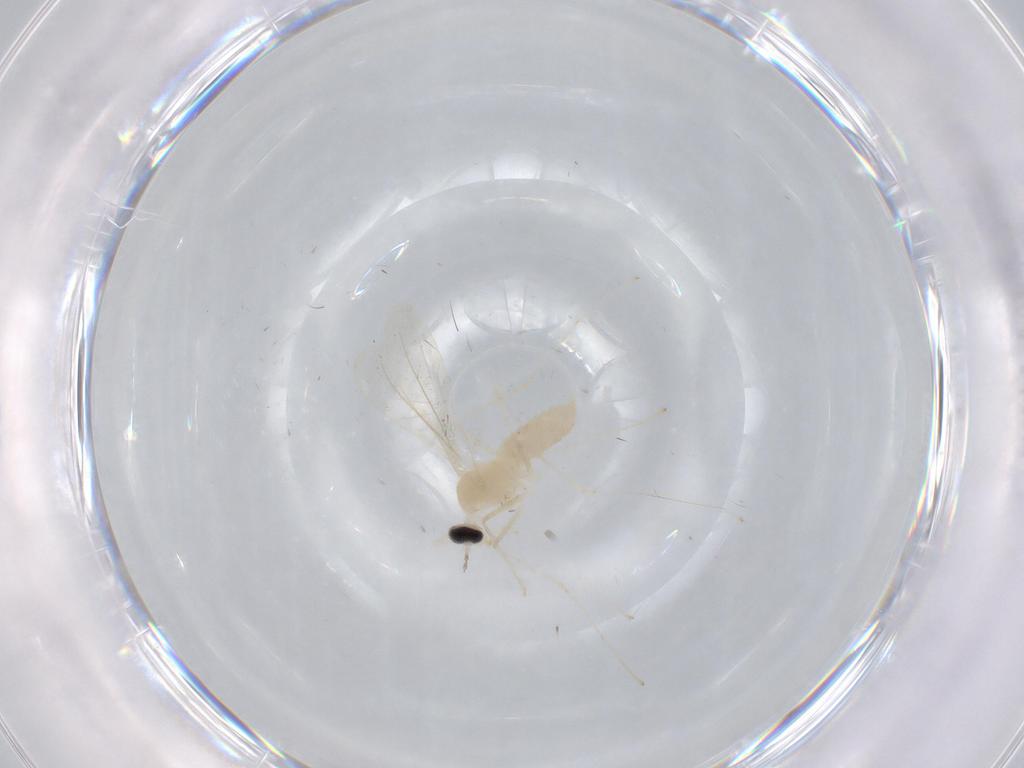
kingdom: Animalia
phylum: Arthropoda
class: Insecta
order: Diptera
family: Cecidomyiidae
